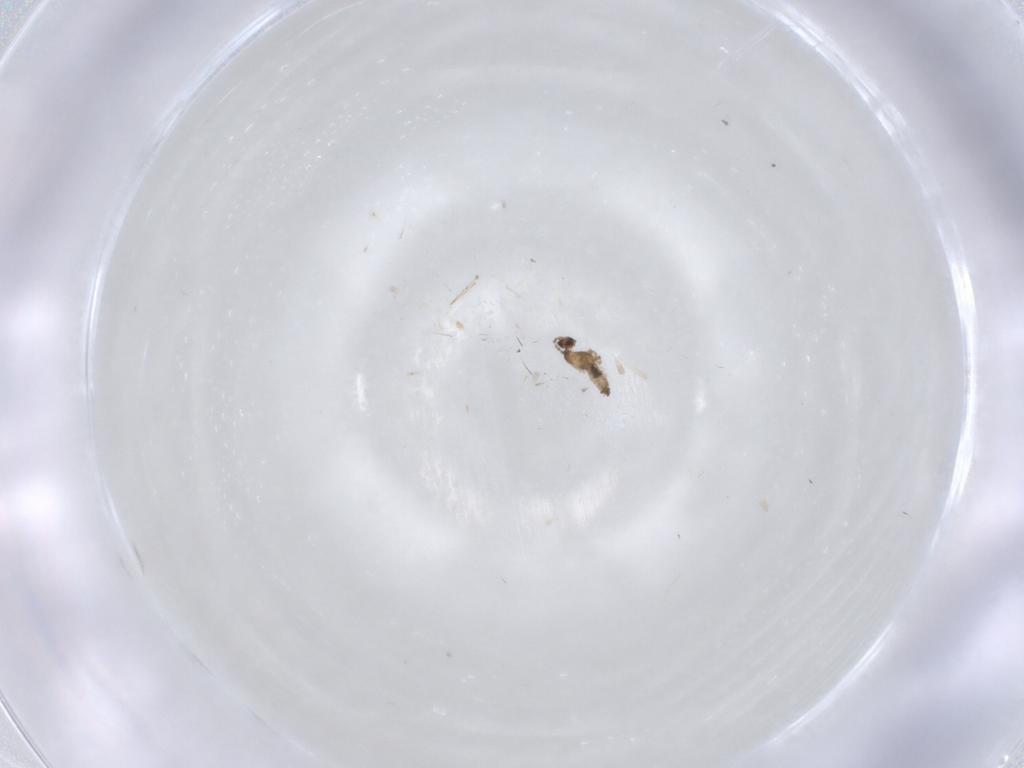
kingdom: Animalia
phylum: Arthropoda
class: Insecta
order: Diptera
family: Cecidomyiidae
